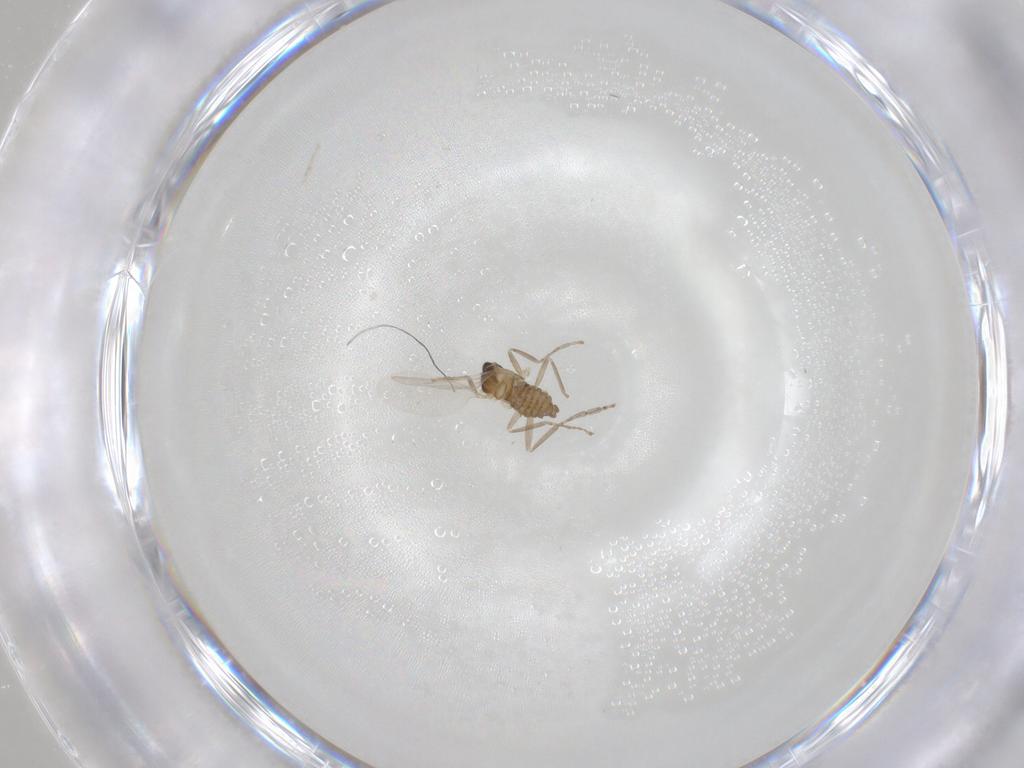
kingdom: Animalia
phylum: Arthropoda
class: Insecta
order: Diptera
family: Cecidomyiidae
